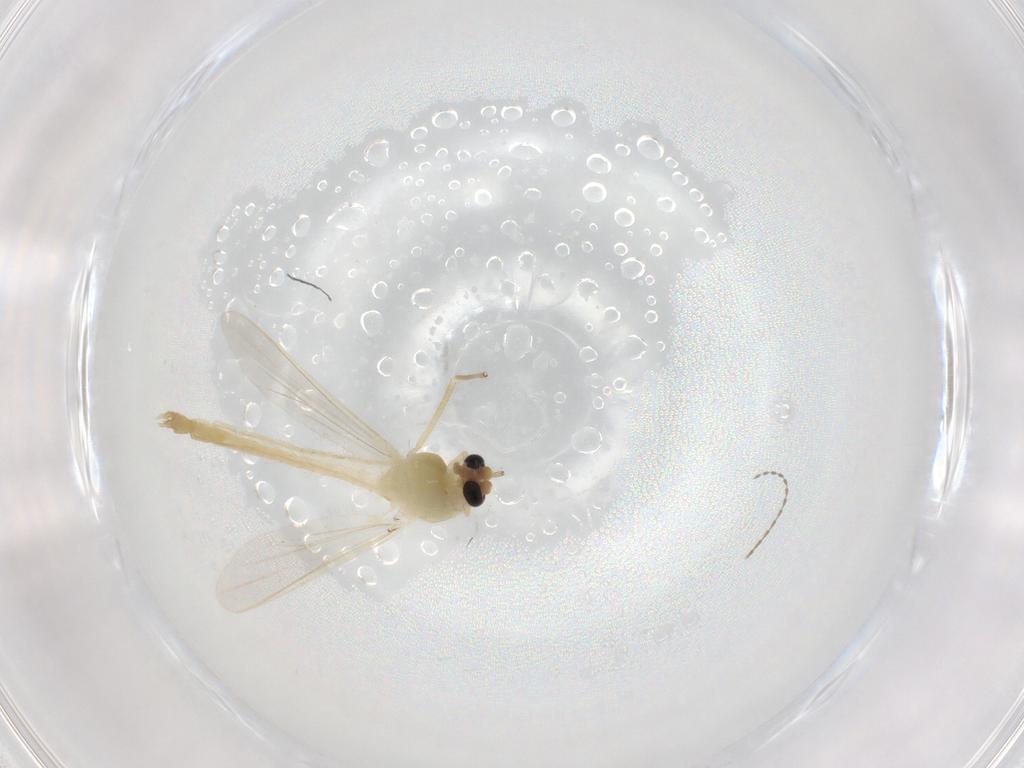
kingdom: Animalia
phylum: Arthropoda
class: Insecta
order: Diptera
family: Chironomidae
